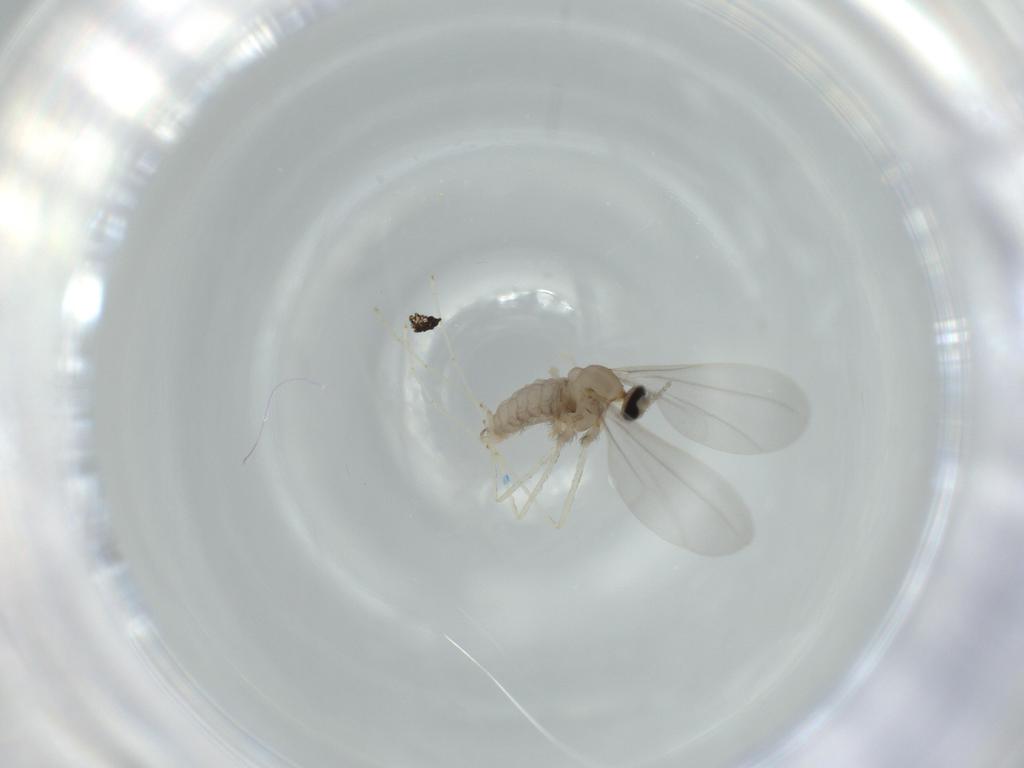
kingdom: Animalia
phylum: Arthropoda
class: Insecta
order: Diptera
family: Cecidomyiidae
